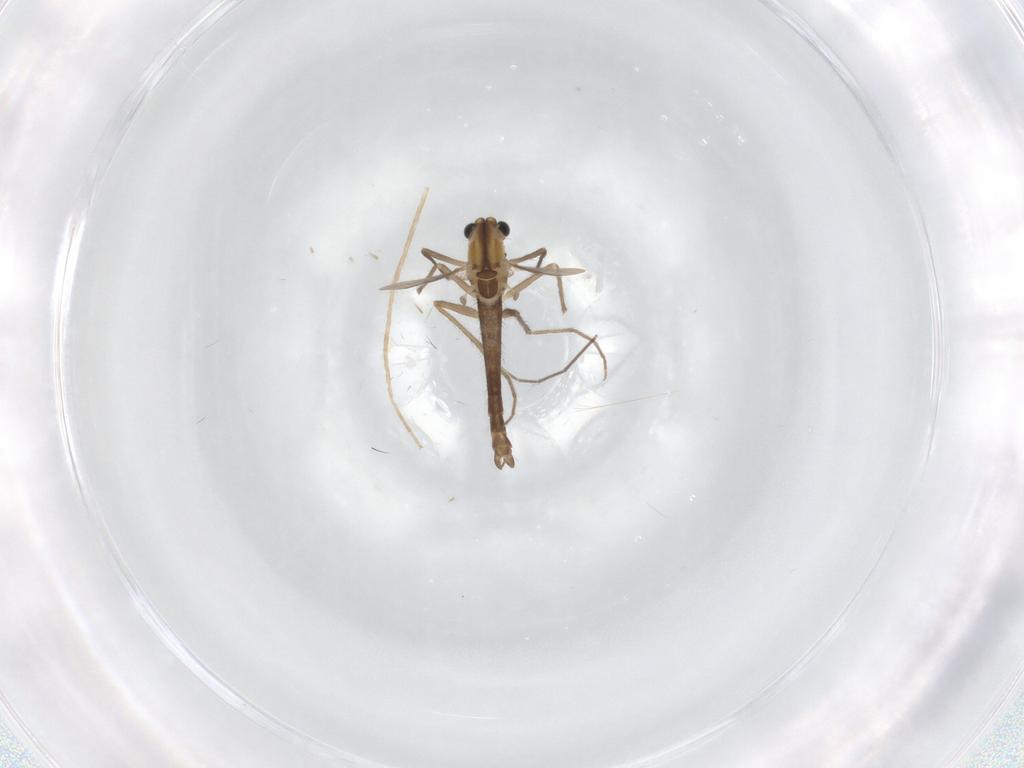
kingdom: Animalia
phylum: Arthropoda
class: Insecta
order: Diptera
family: Chironomidae
